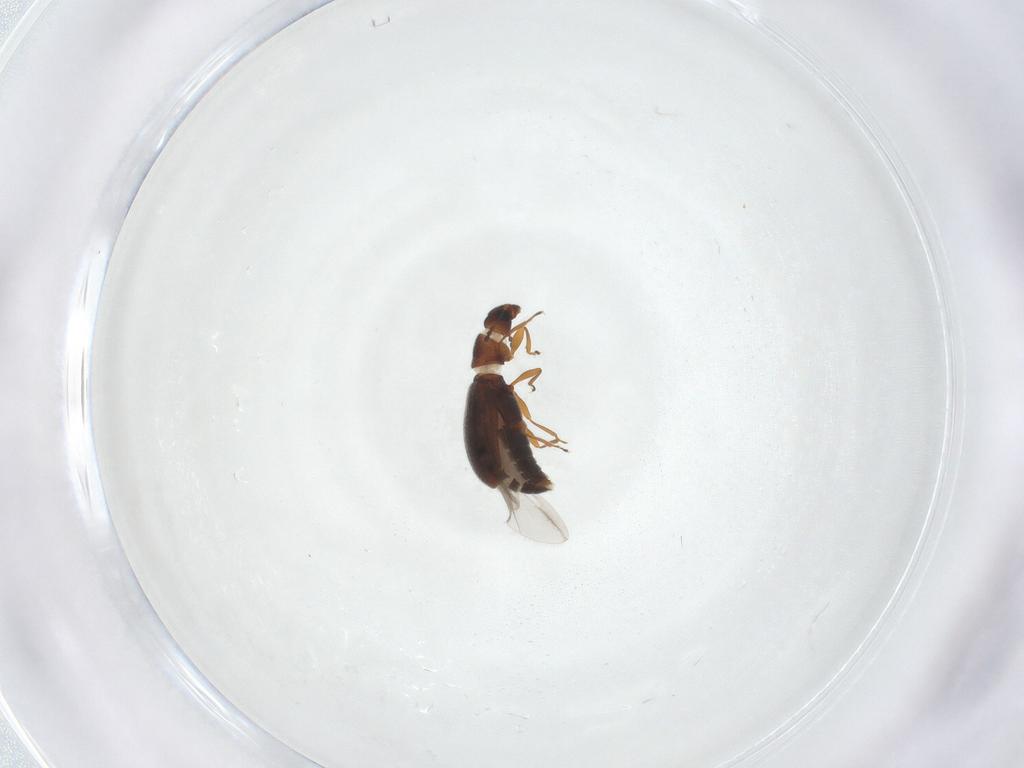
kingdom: Animalia
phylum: Arthropoda
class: Insecta
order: Coleoptera
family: Latridiidae
